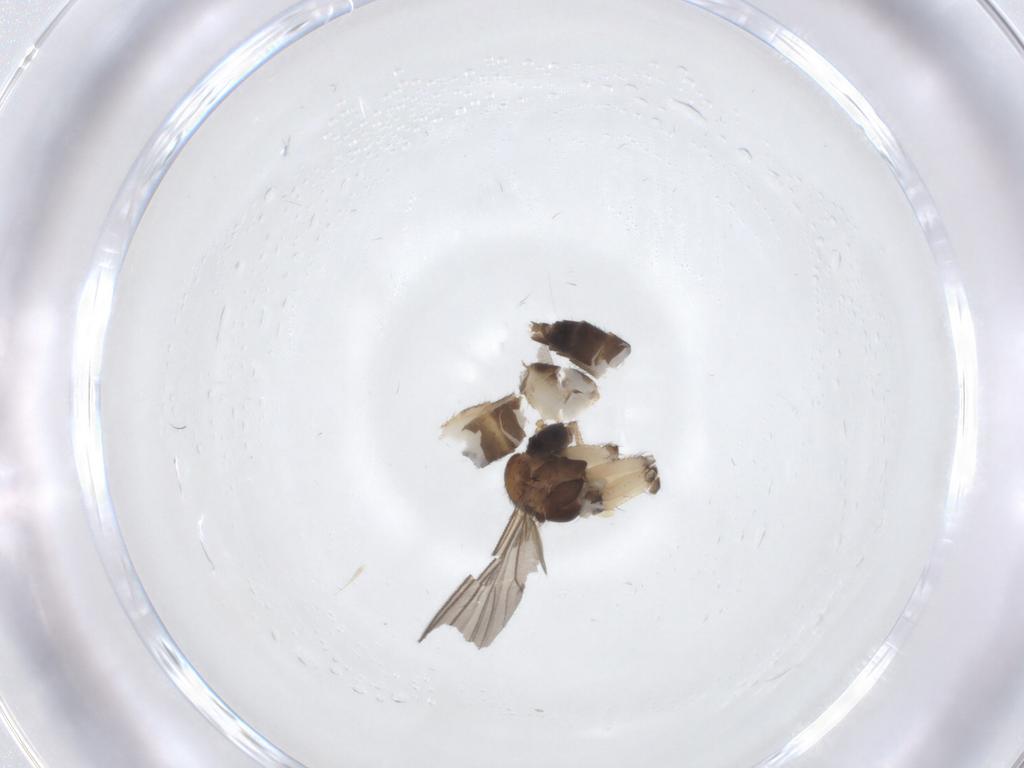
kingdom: Animalia
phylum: Arthropoda
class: Insecta
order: Diptera
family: Mycetophilidae
